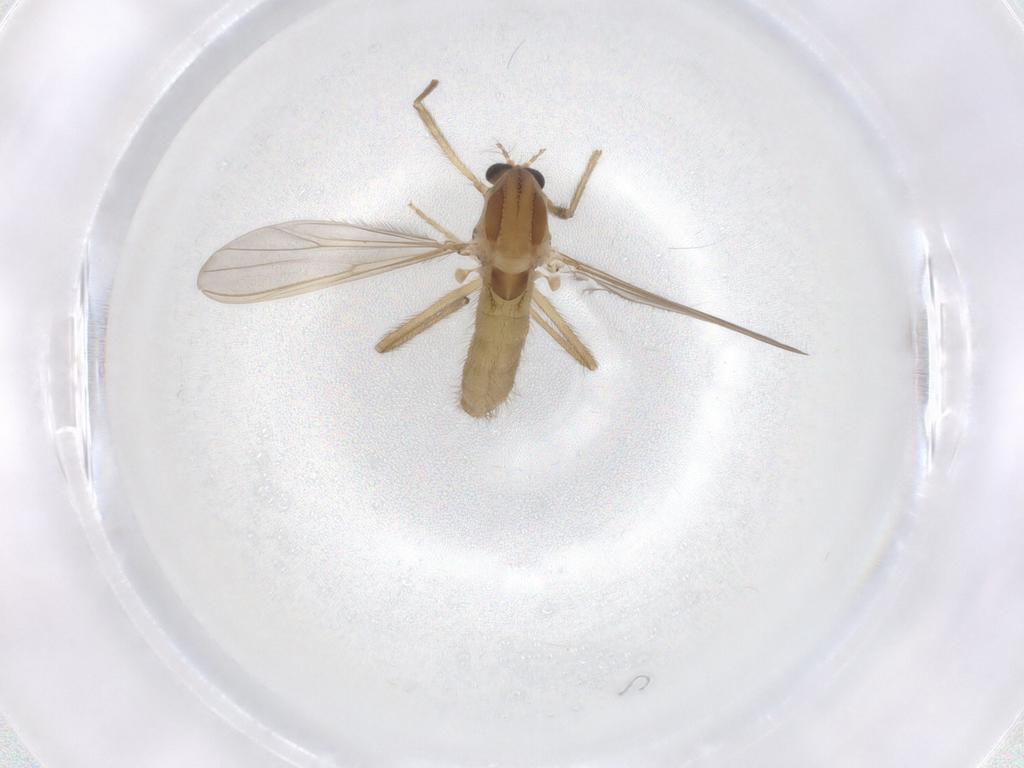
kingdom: Animalia
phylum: Arthropoda
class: Insecta
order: Diptera
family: Chironomidae
